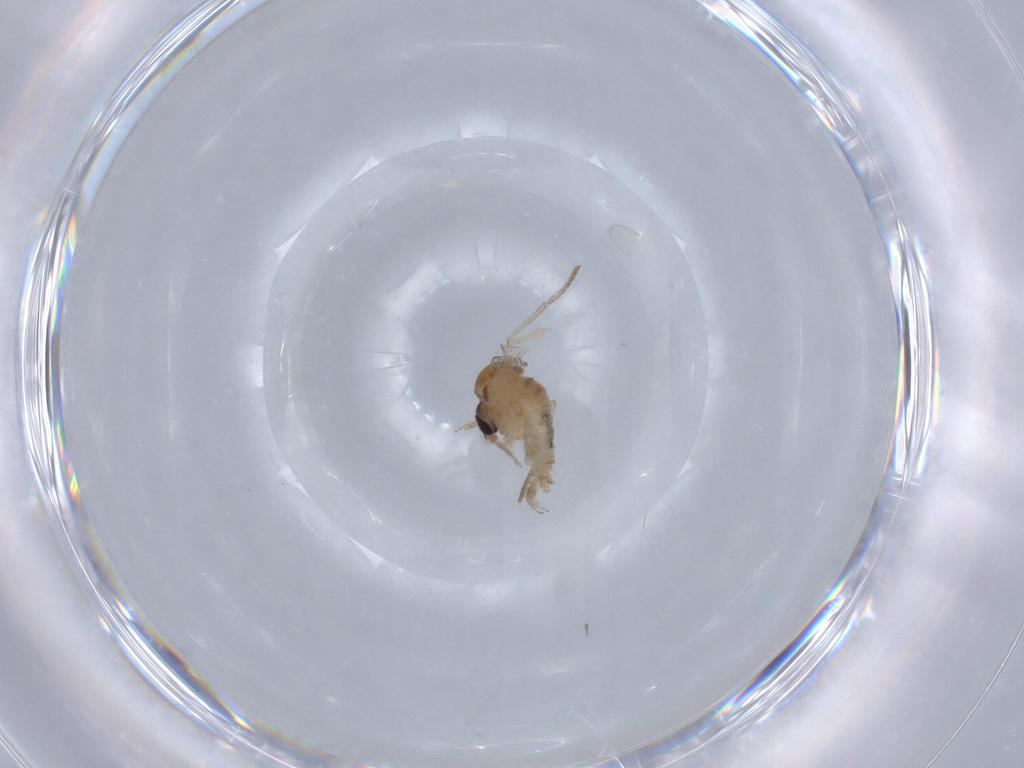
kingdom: Animalia
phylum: Arthropoda
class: Insecta
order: Diptera
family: Psychodidae
